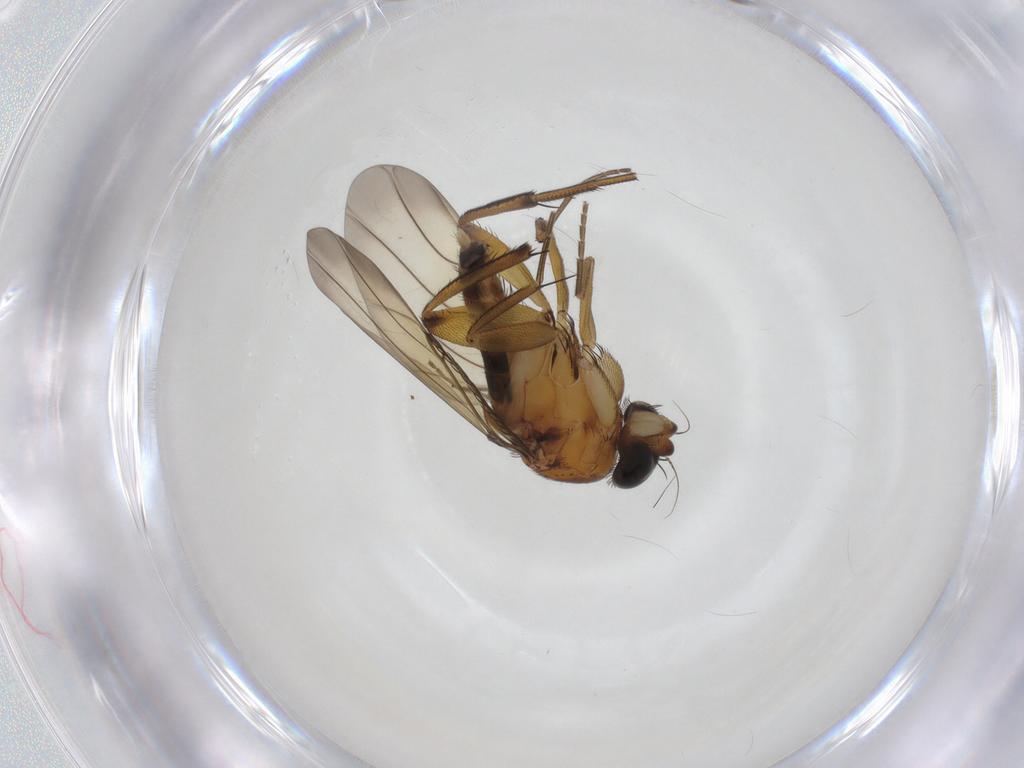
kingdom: Animalia
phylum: Arthropoda
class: Insecta
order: Diptera
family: Phoridae
